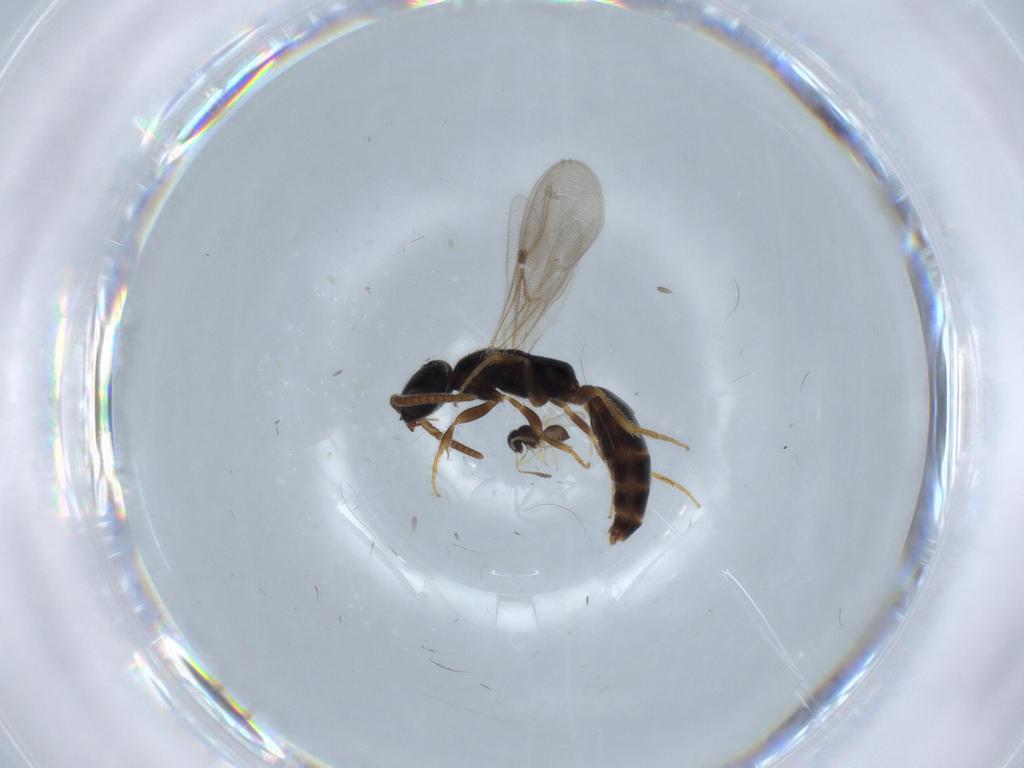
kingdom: Animalia
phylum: Arthropoda
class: Insecta
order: Hymenoptera
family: Scelionidae
